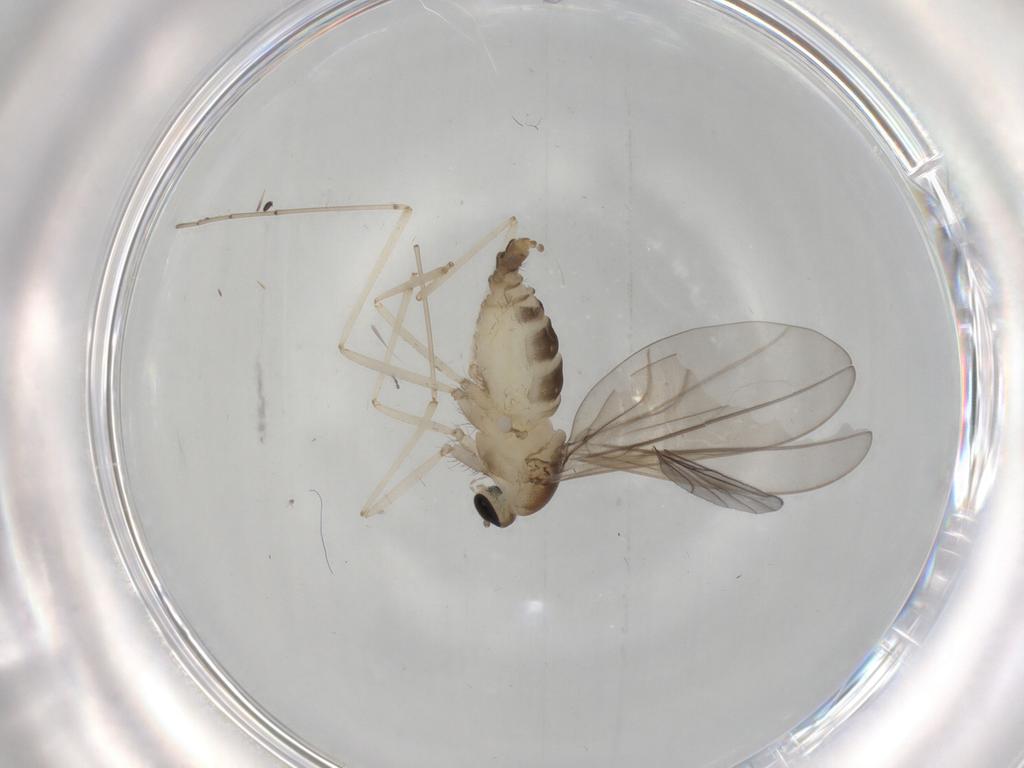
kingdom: Animalia
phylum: Arthropoda
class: Insecta
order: Diptera
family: Cecidomyiidae
